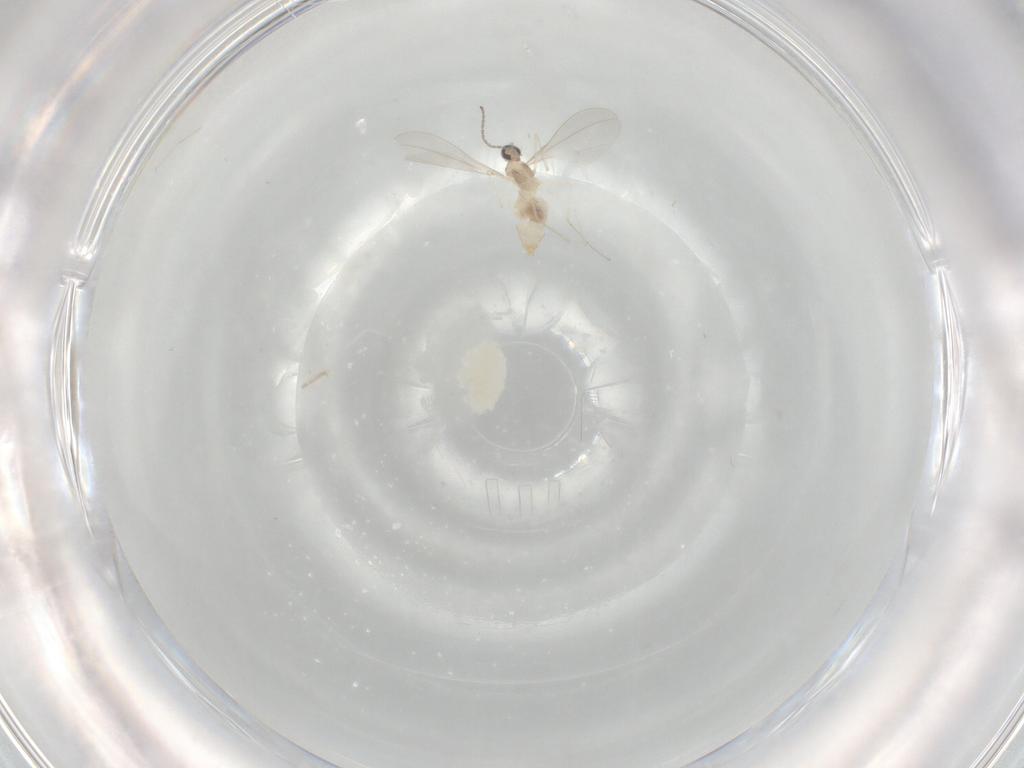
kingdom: Animalia
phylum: Arthropoda
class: Insecta
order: Diptera
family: Cecidomyiidae
